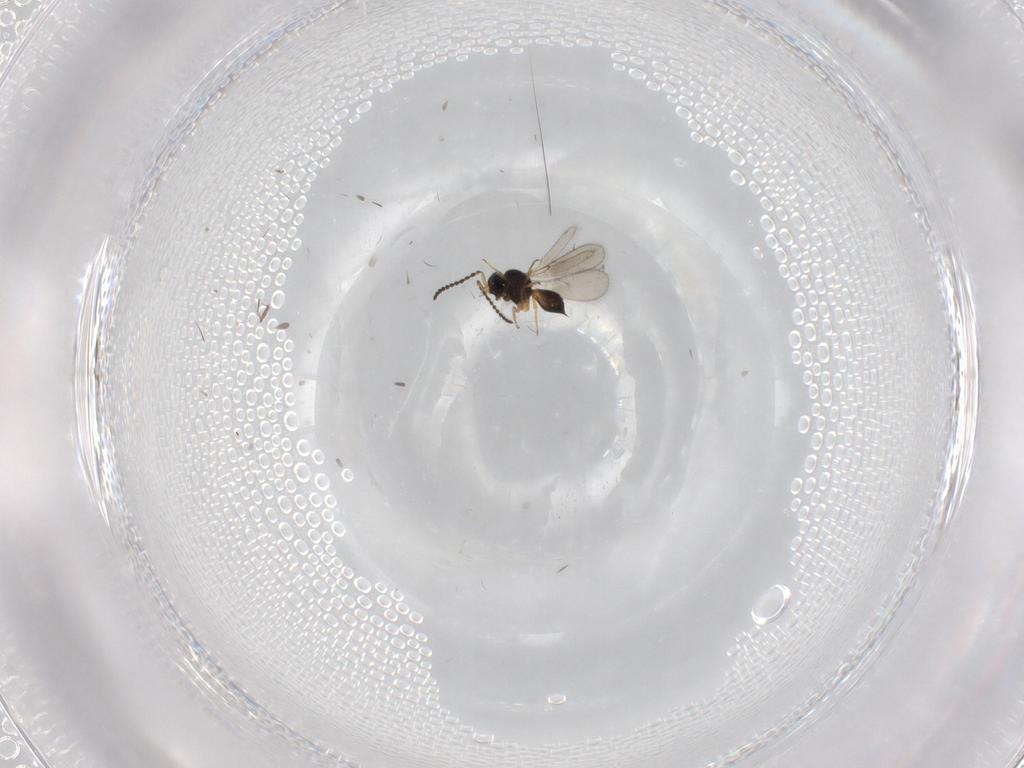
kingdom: Animalia
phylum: Arthropoda
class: Insecta
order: Hymenoptera
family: Scelionidae
